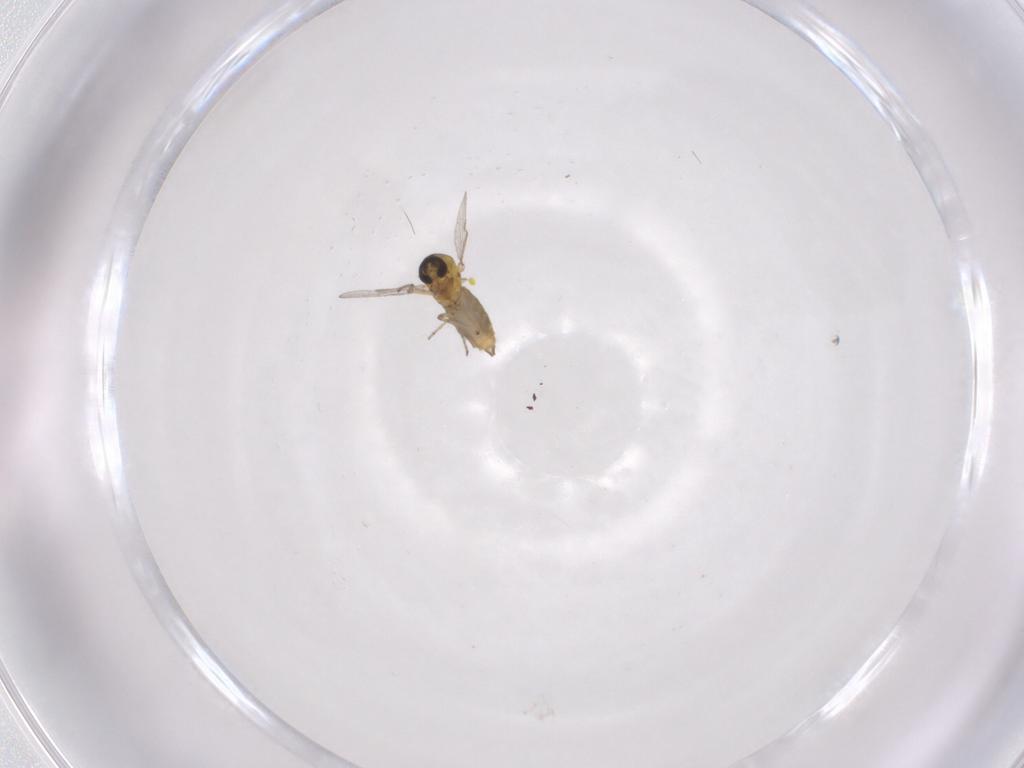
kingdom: Animalia
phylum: Arthropoda
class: Insecta
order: Diptera
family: Ceratopogonidae
